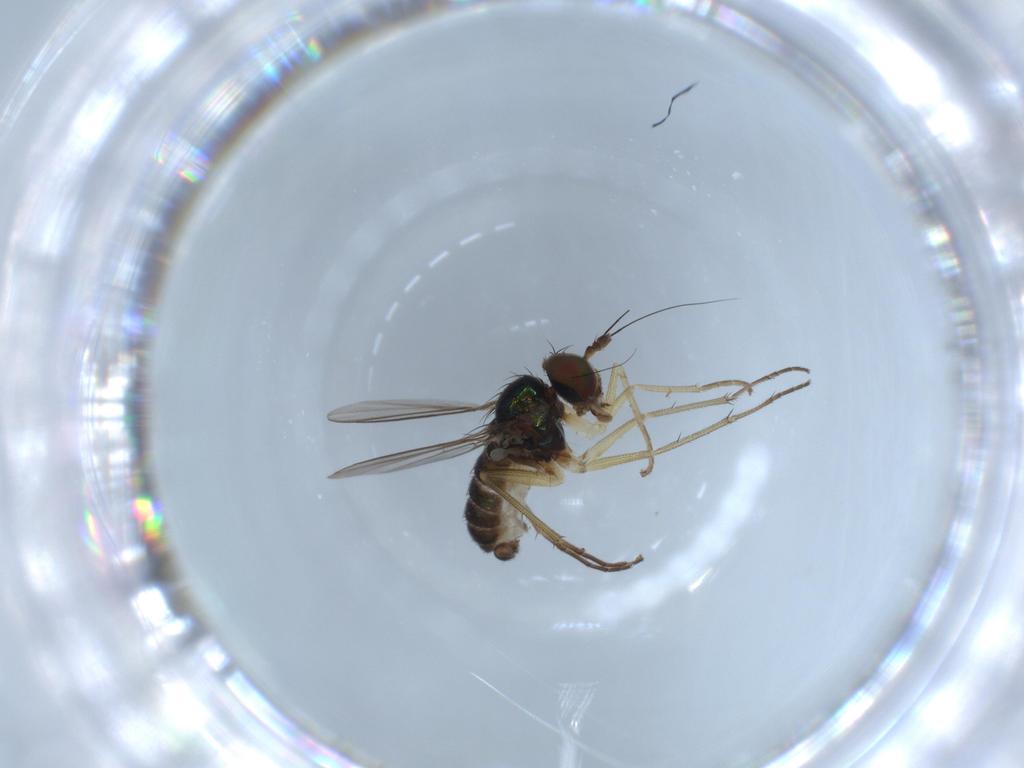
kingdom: Animalia
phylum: Arthropoda
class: Insecta
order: Diptera
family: Dolichopodidae
